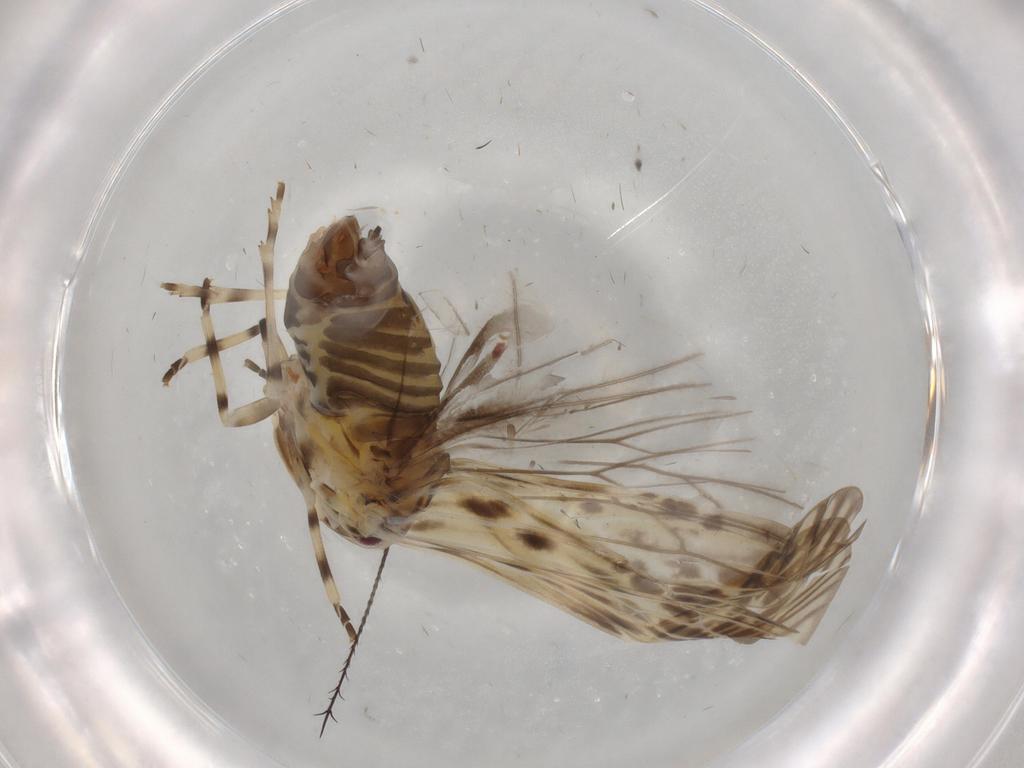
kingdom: Animalia
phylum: Arthropoda
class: Insecta
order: Hemiptera
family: Derbidae
